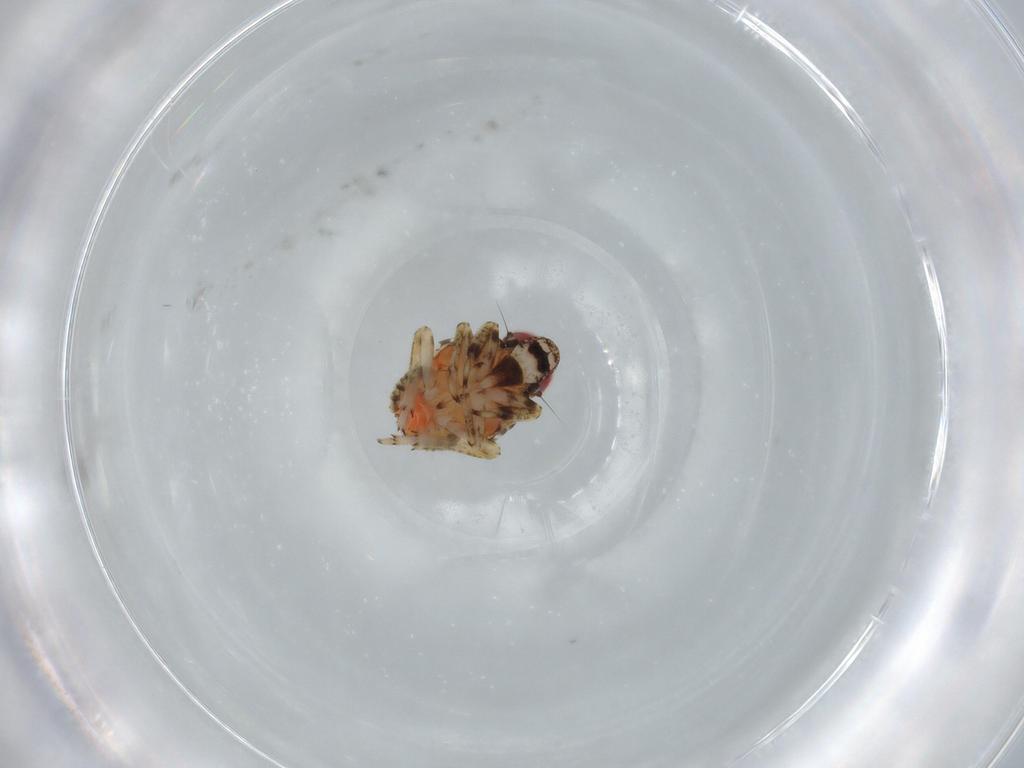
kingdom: Animalia
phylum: Arthropoda
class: Insecta
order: Hemiptera
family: Issidae
